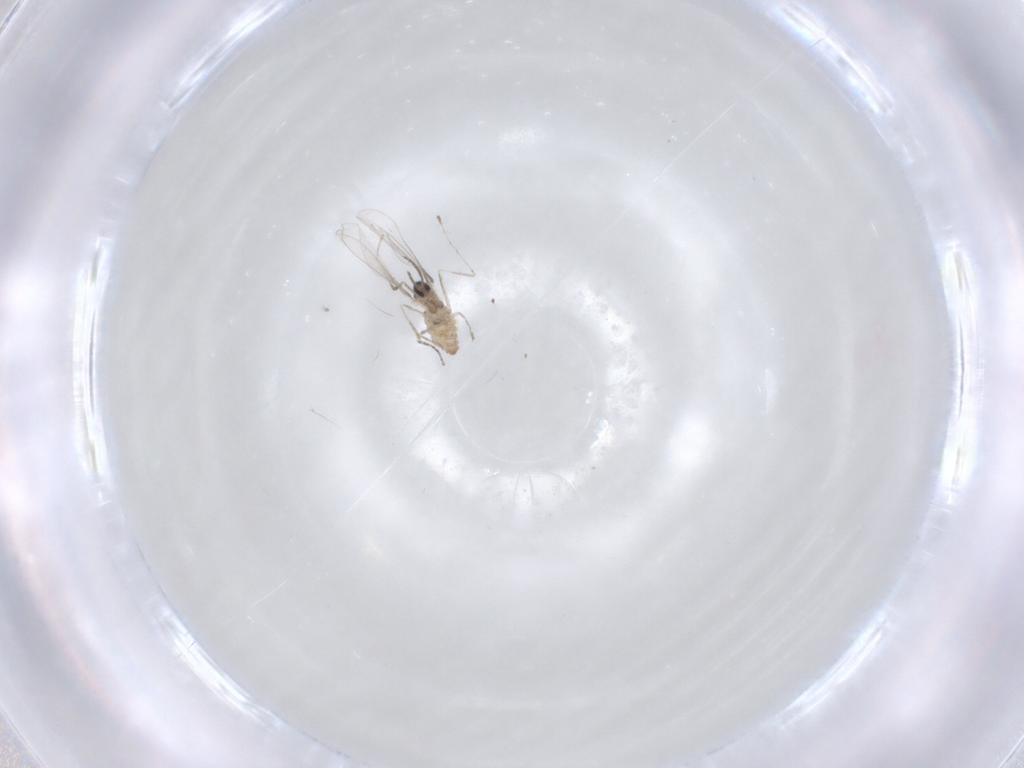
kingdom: Animalia
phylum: Arthropoda
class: Insecta
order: Diptera
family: Cecidomyiidae
